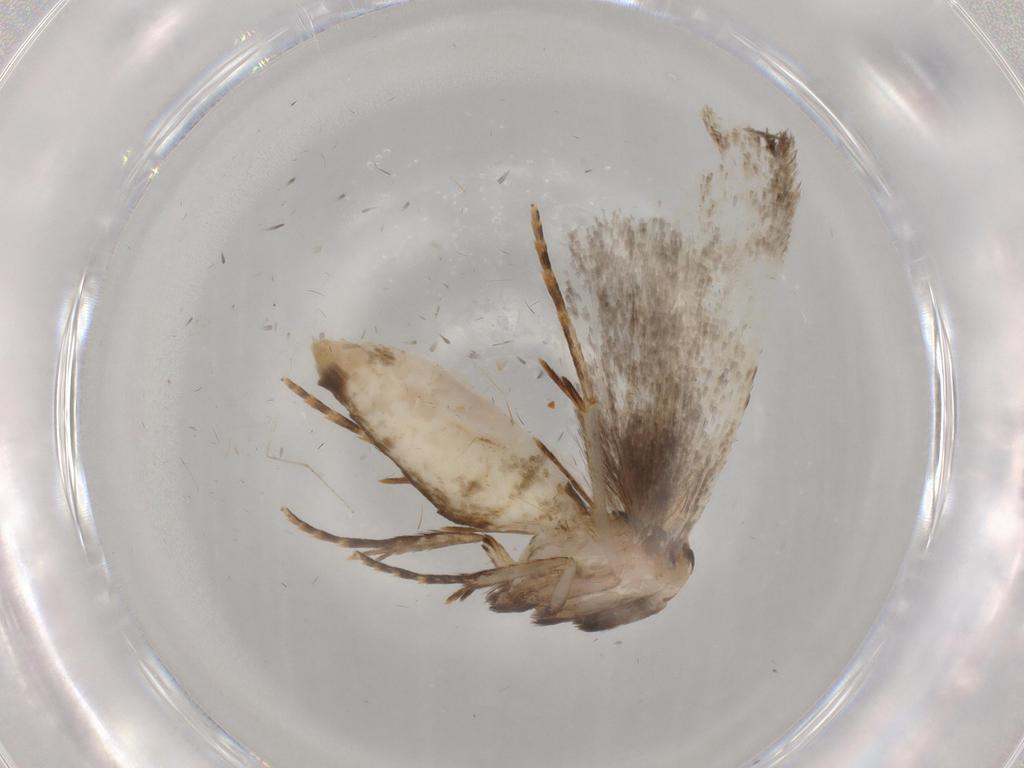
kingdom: Animalia
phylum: Arthropoda
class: Insecta
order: Lepidoptera
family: Gelechiidae
